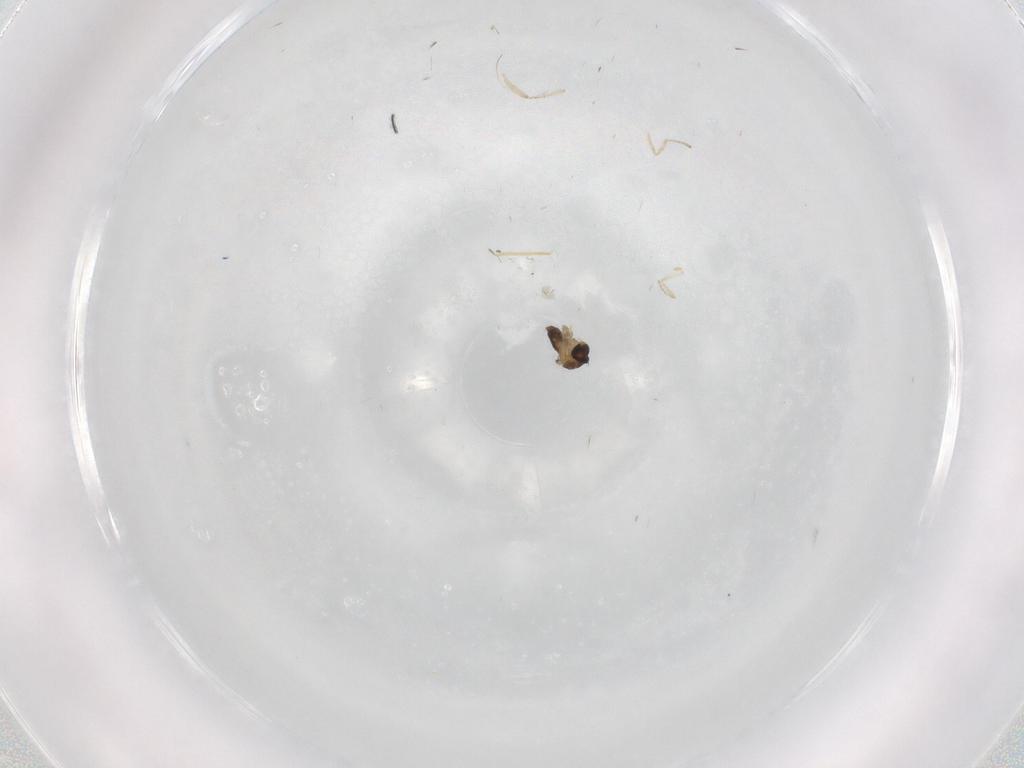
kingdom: Animalia
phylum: Arthropoda
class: Insecta
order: Diptera
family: Cecidomyiidae
